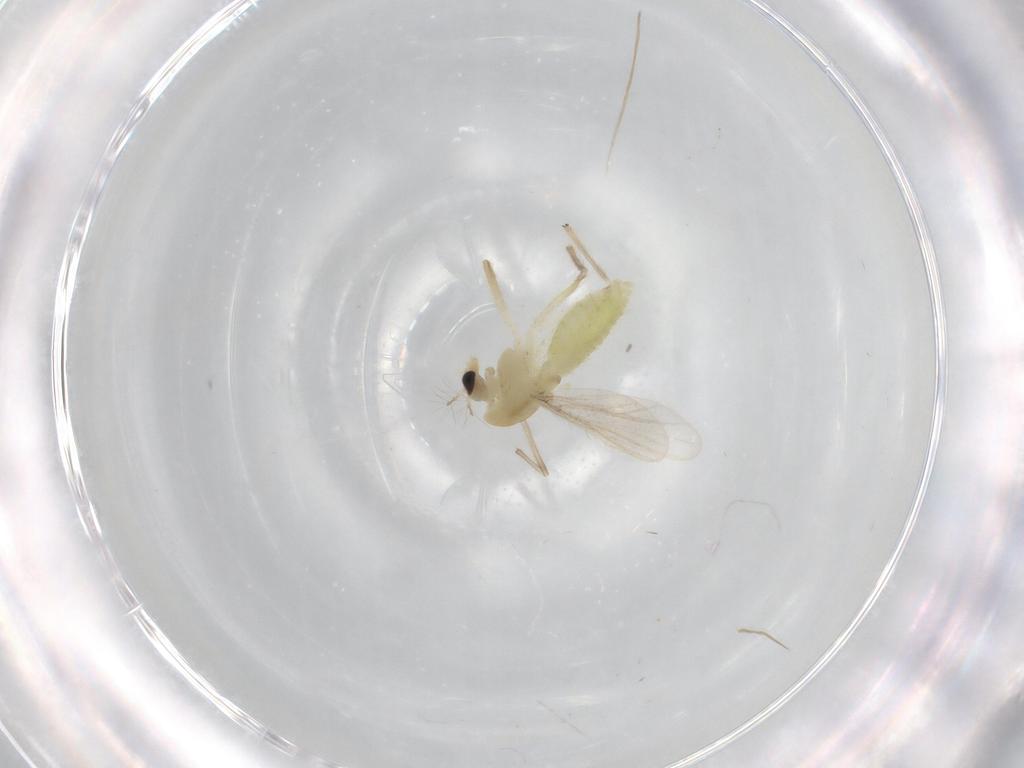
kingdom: Animalia
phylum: Arthropoda
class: Insecta
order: Diptera
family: Chironomidae
